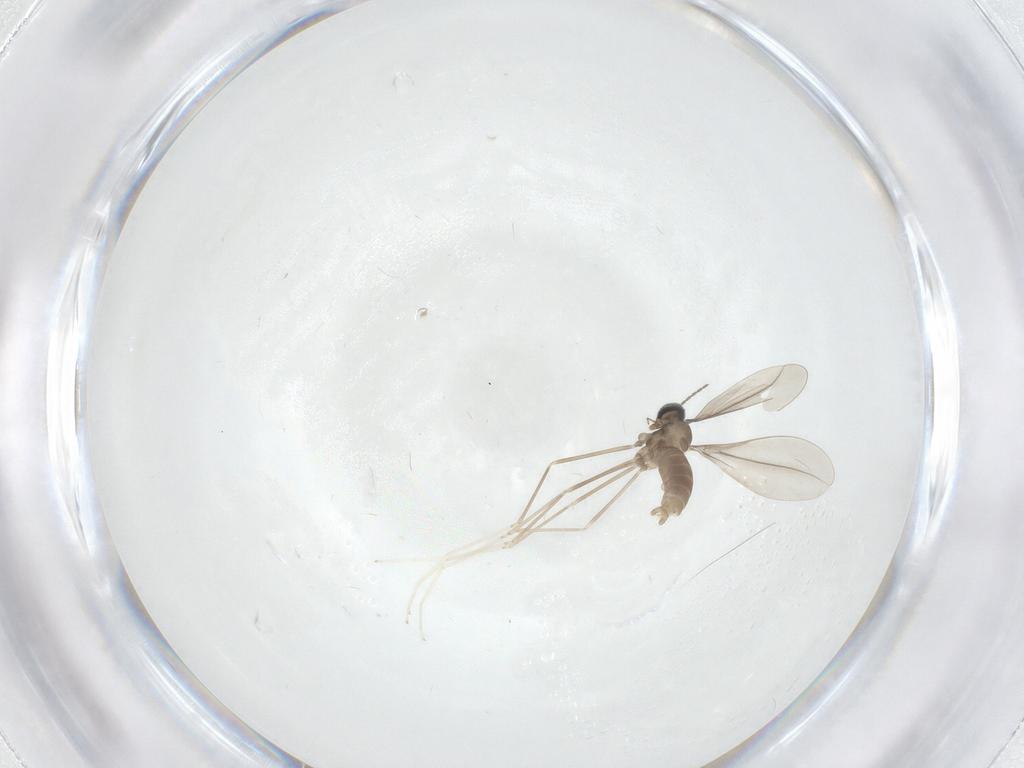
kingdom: Animalia
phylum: Arthropoda
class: Insecta
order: Diptera
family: Cecidomyiidae
